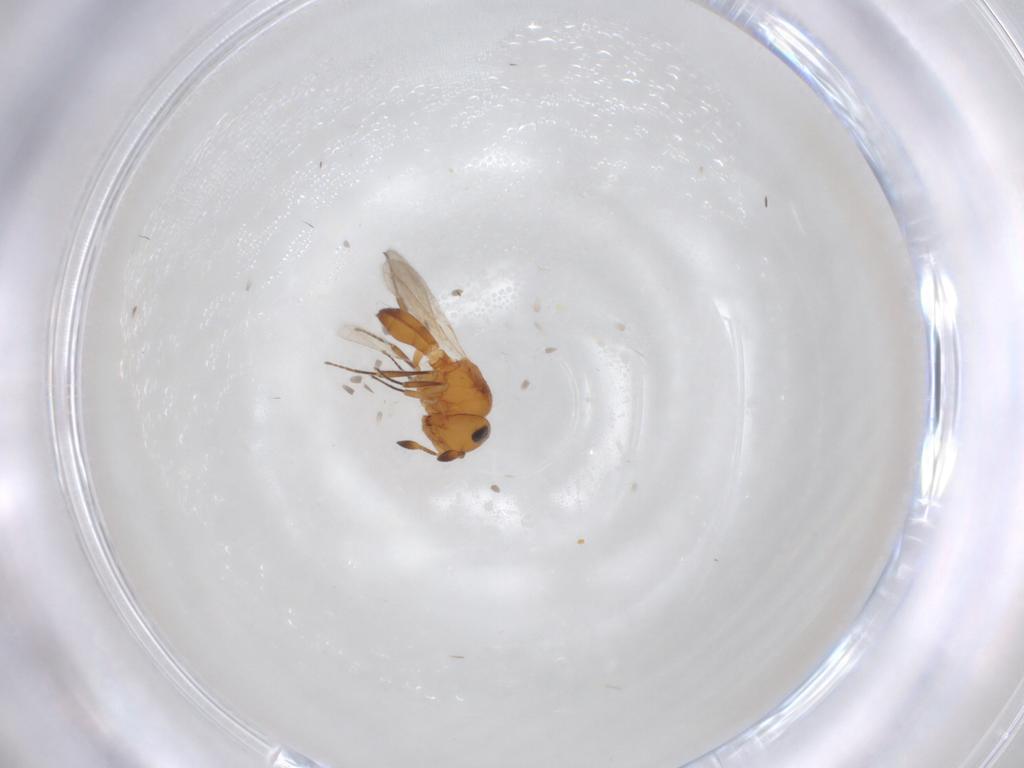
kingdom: Animalia
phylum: Arthropoda
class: Insecta
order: Hymenoptera
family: Scelionidae
